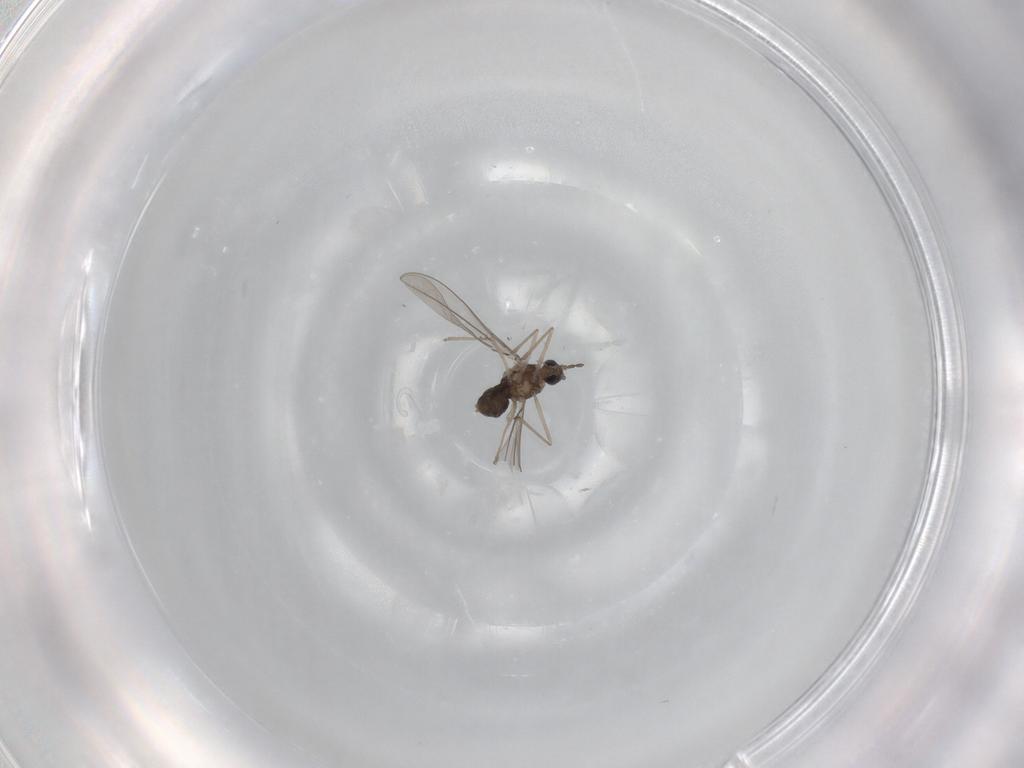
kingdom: Animalia
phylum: Arthropoda
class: Insecta
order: Diptera
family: Cecidomyiidae
